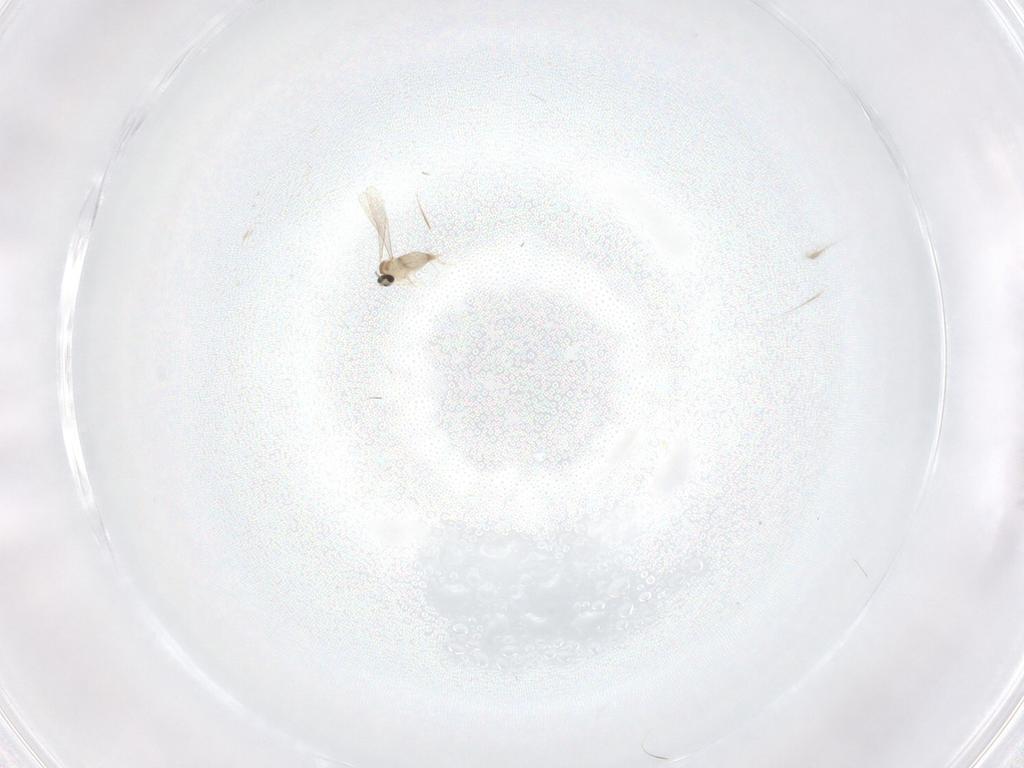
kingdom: Animalia
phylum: Arthropoda
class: Insecta
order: Diptera
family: Cecidomyiidae
